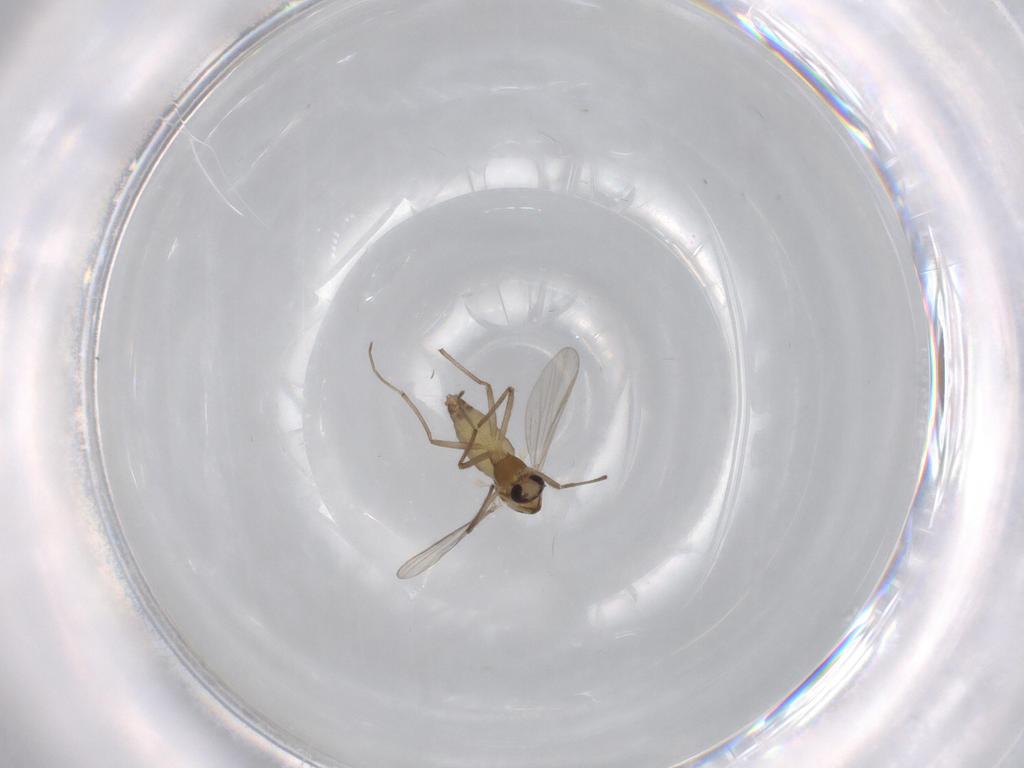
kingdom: Animalia
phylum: Arthropoda
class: Insecta
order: Diptera
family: Chironomidae
